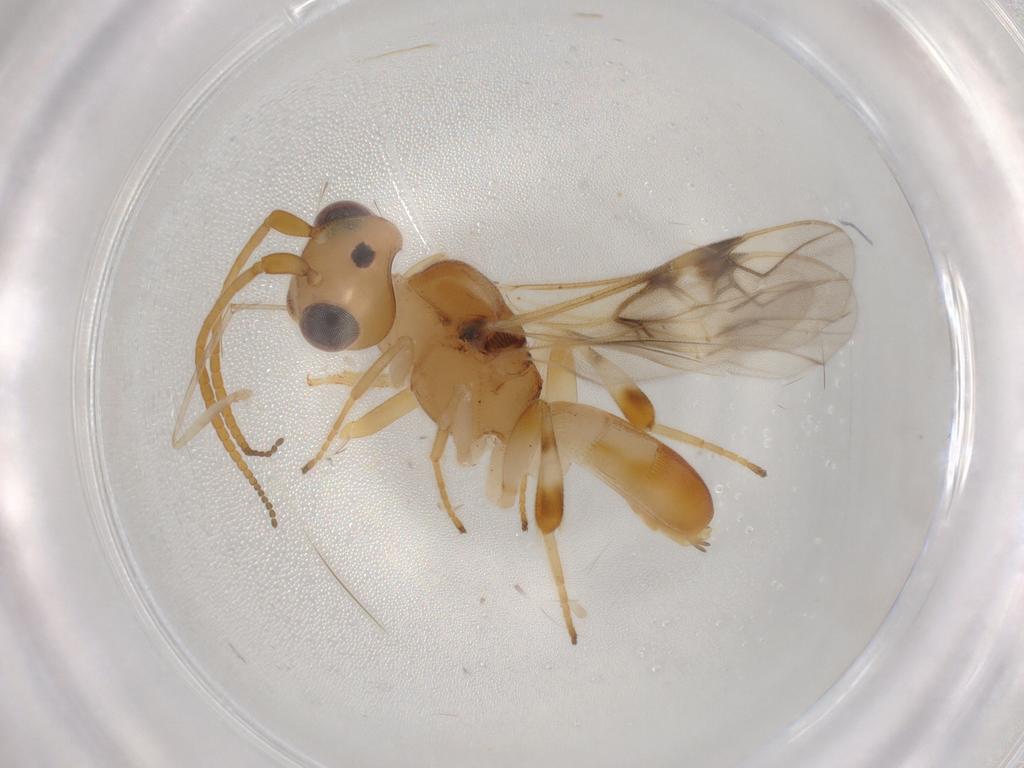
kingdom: Animalia
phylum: Arthropoda
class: Insecta
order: Hymenoptera
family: Braconidae
